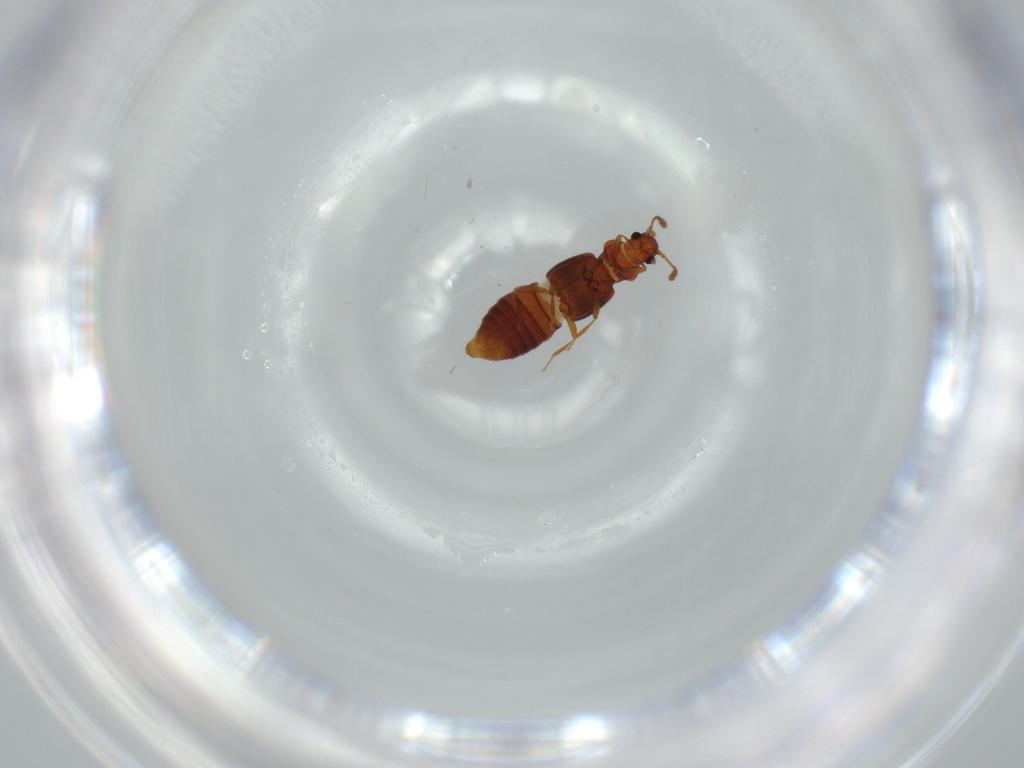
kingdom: Animalia
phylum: Arthropoda
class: Insecta
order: Coleoptera
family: Staphylinidae
